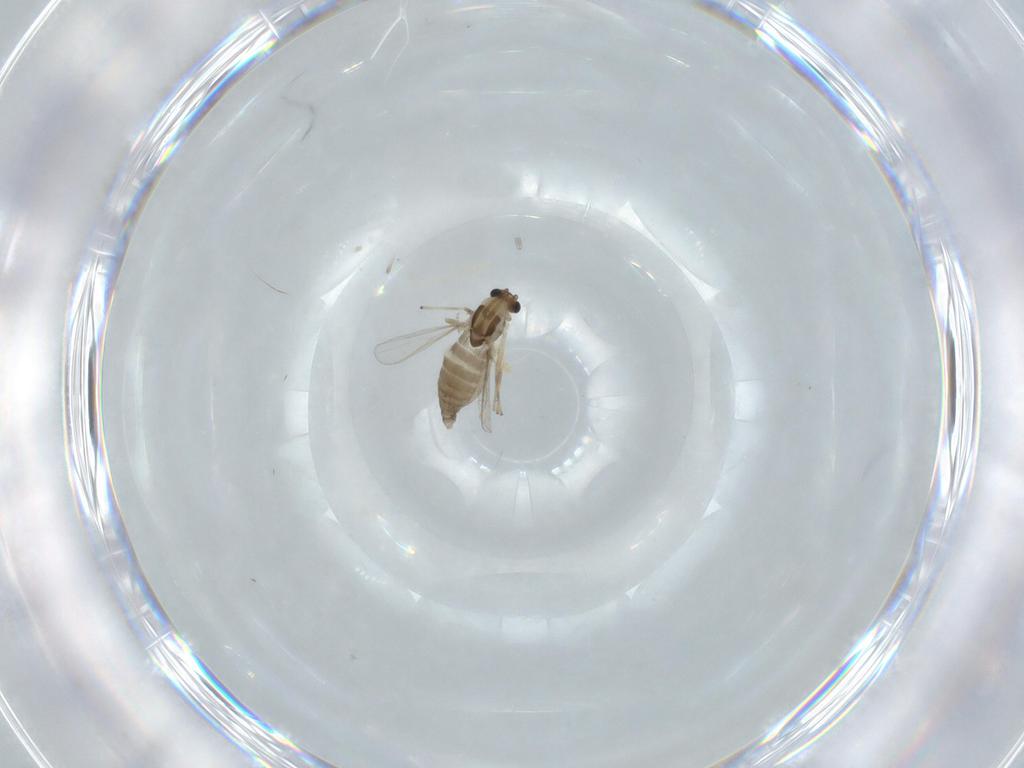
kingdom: Animalia
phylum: Arthropoda
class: Insecta
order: Diptera
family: Chironomidae
